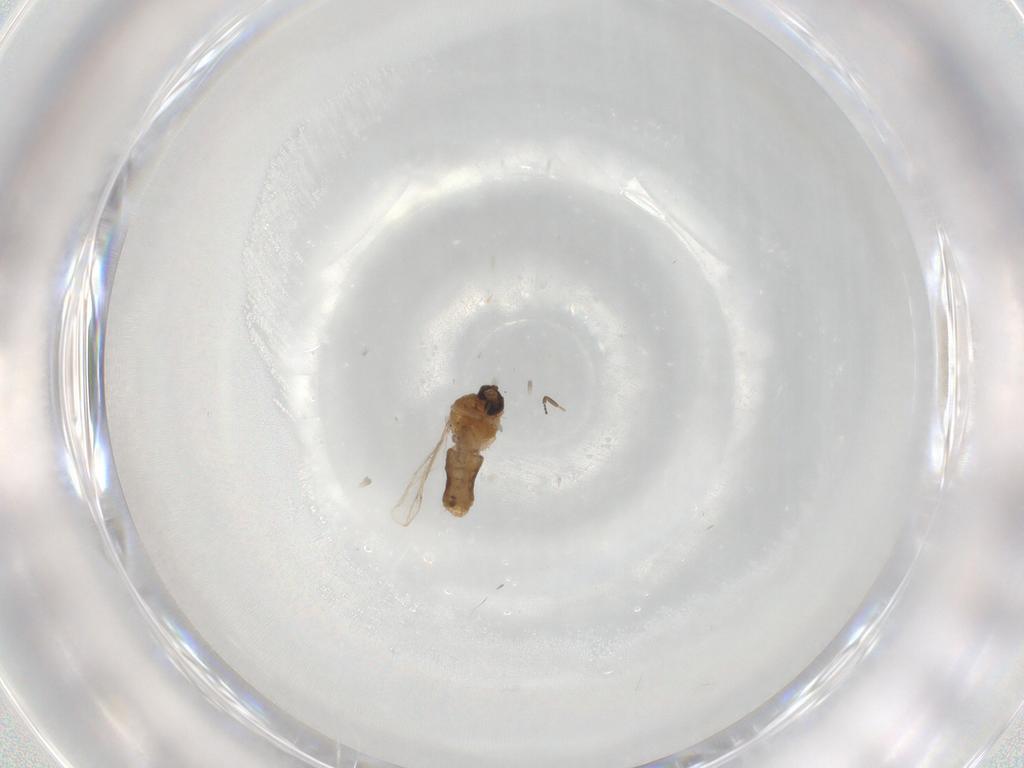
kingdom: Animalia
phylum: Arthropoda
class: Insecta
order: Diptera
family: Ceratopogonidae
